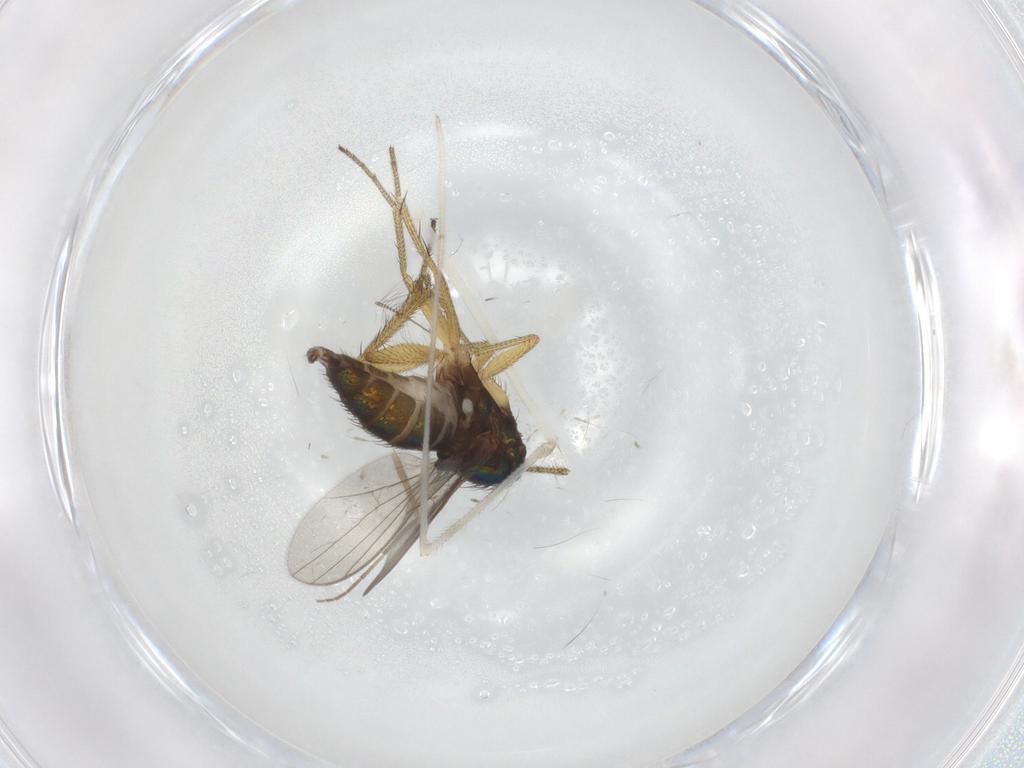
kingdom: Animalia
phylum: Arthropoda
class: Insecta
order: Diptera
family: Dolichopodidae
